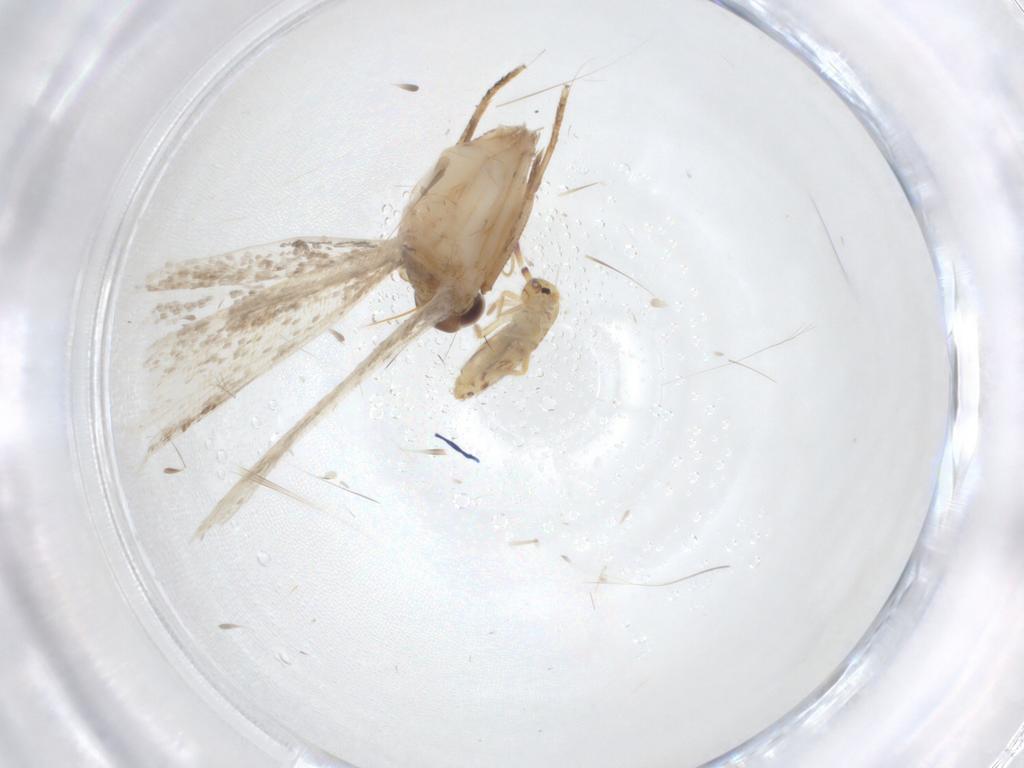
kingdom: Animalia
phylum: Arthropoda
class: Insecta
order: Lepidoptera
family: Crambidae
